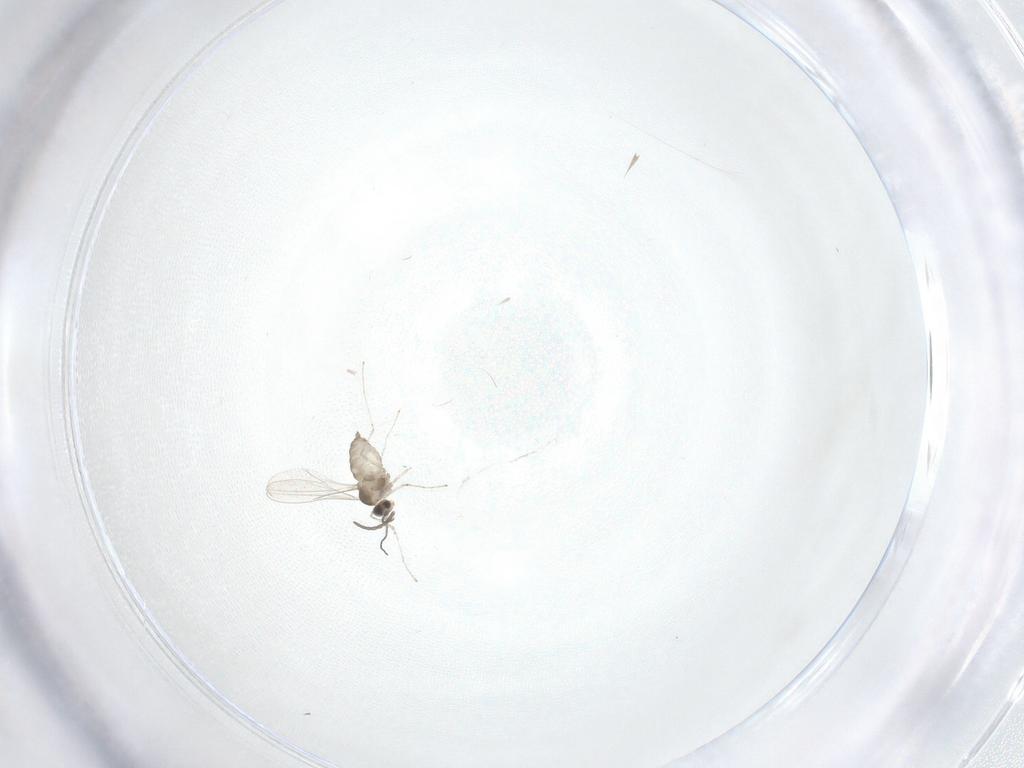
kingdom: Animalia
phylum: Arthropoda
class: Insecta
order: Diptera
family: Cecidomyiidae
